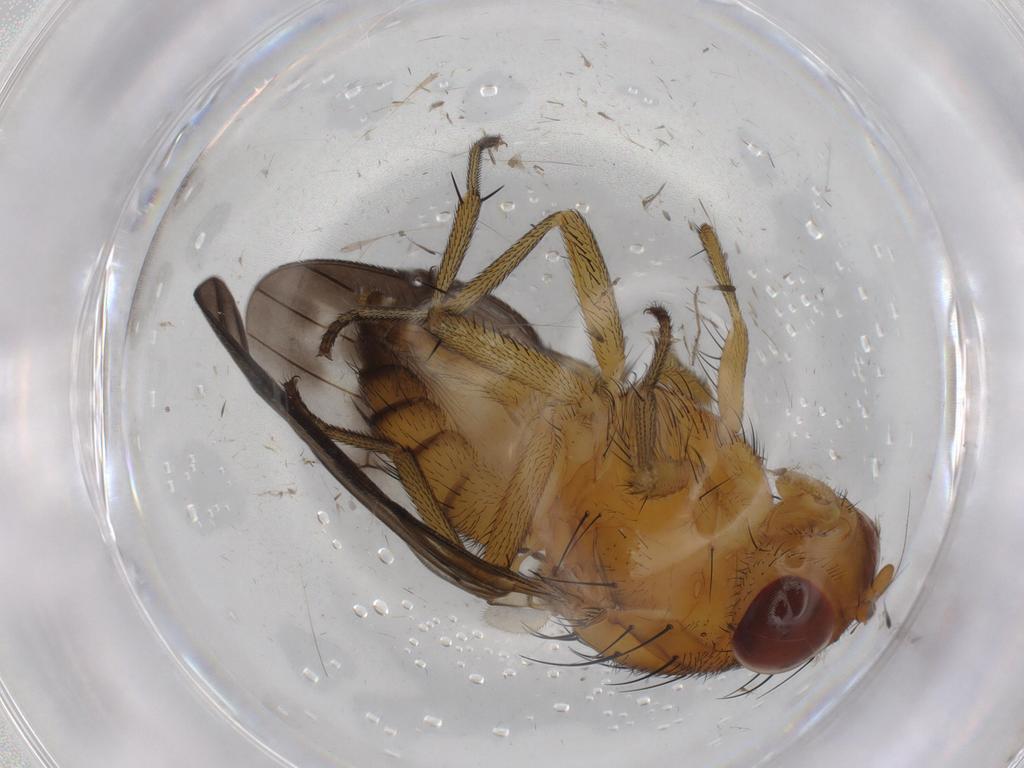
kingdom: Animalia
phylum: Arthropoda
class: Insecta
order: Diptera
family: Cecidomyiidae
